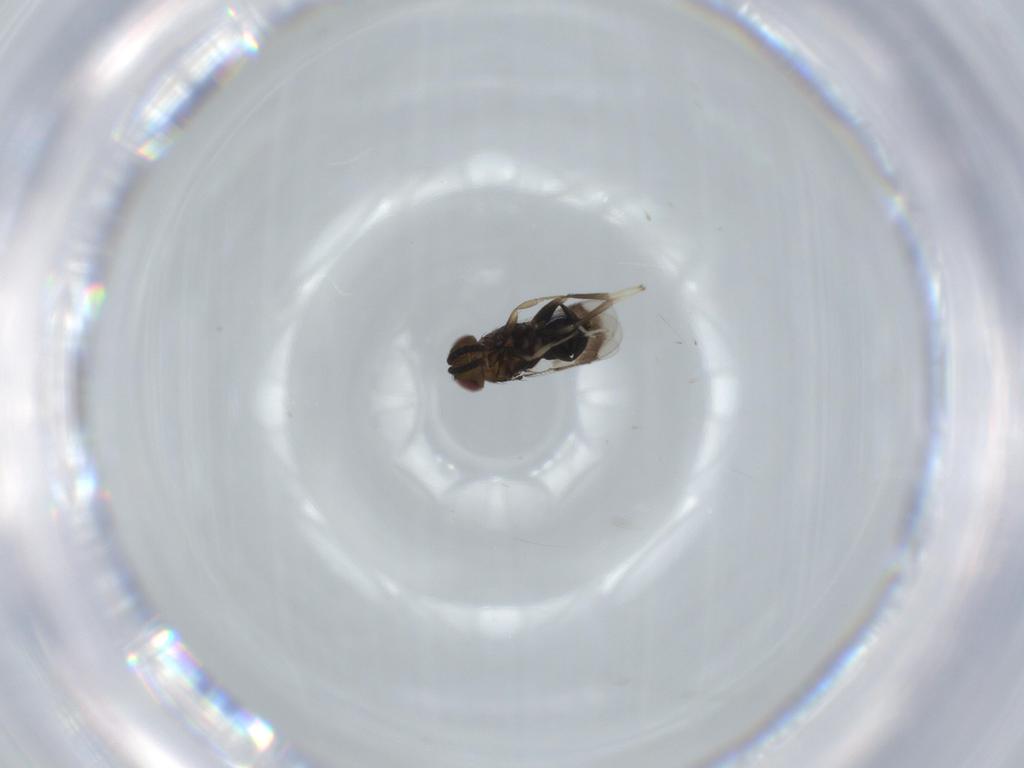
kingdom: Animalia
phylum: Arthropoda
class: Insecta
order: Hymenoptera
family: Aphelinidae
